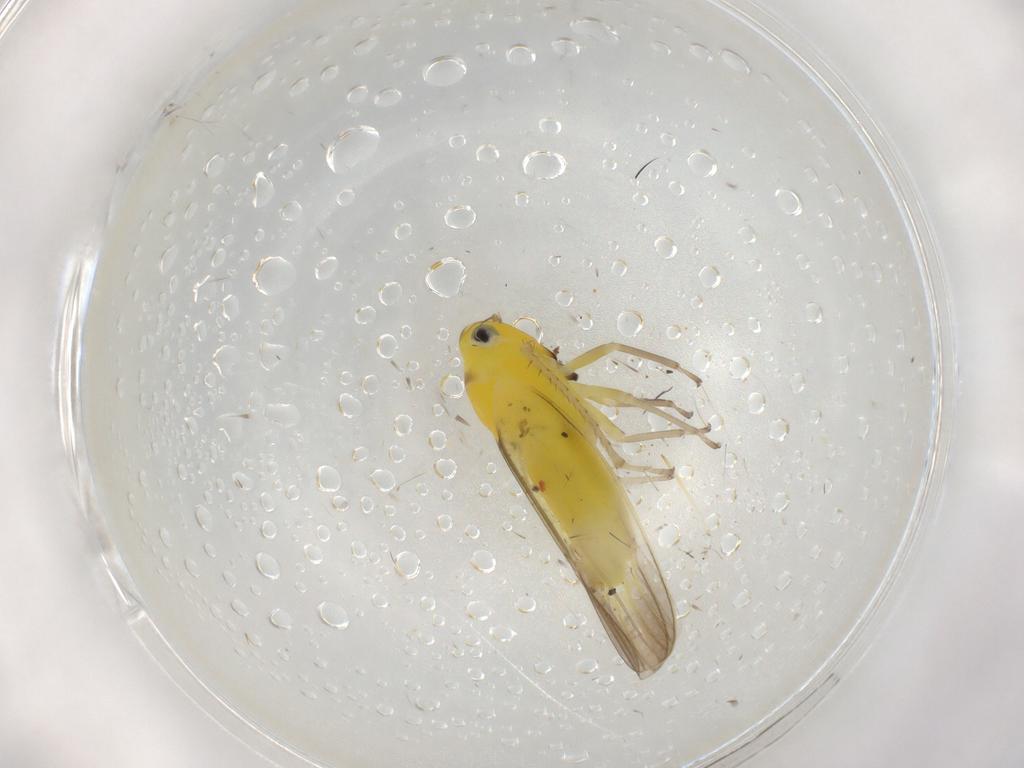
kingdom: Animalia
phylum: Arthropoda
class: Insecta
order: Hemiptera
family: Cicadellidae
